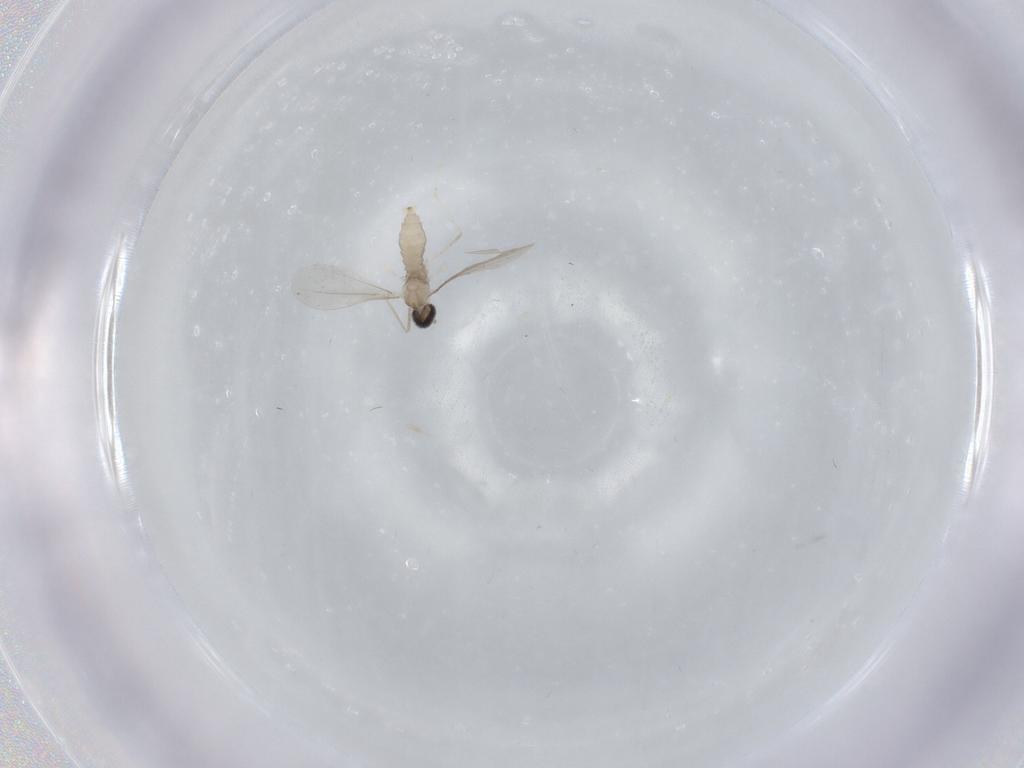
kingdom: Animalia
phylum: Arthropoda
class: Insecta
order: Diptera
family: Cecidomyiidae
